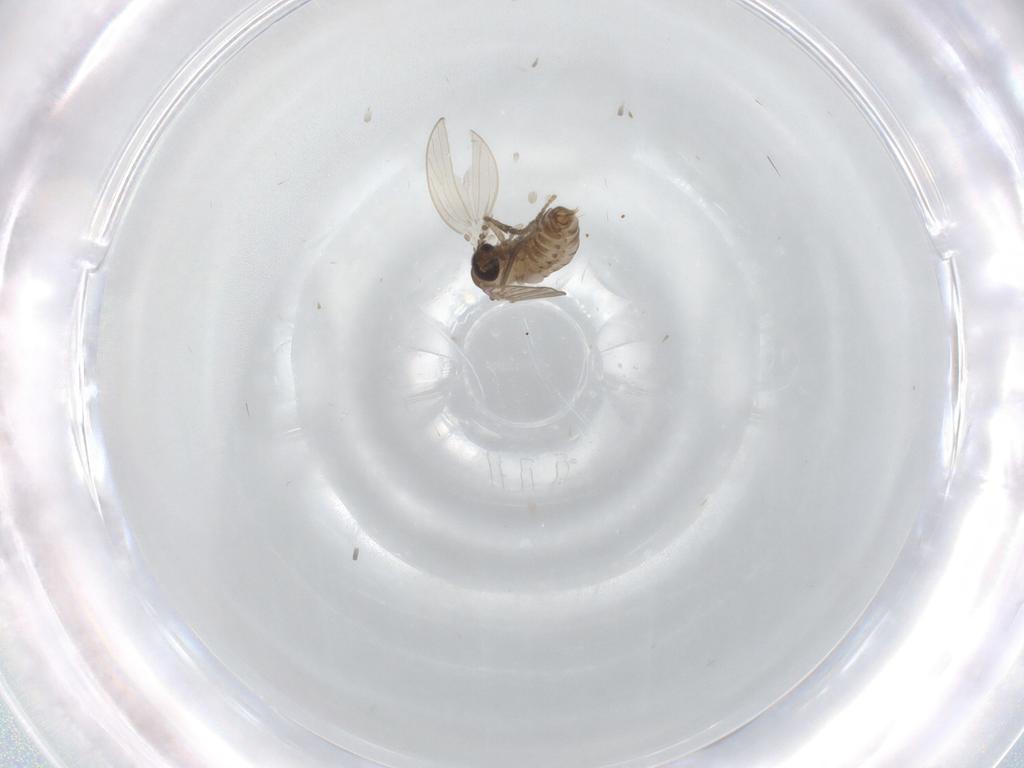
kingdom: Animalia
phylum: Arthropoda
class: Insecta
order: Diptera
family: Psychodidae
